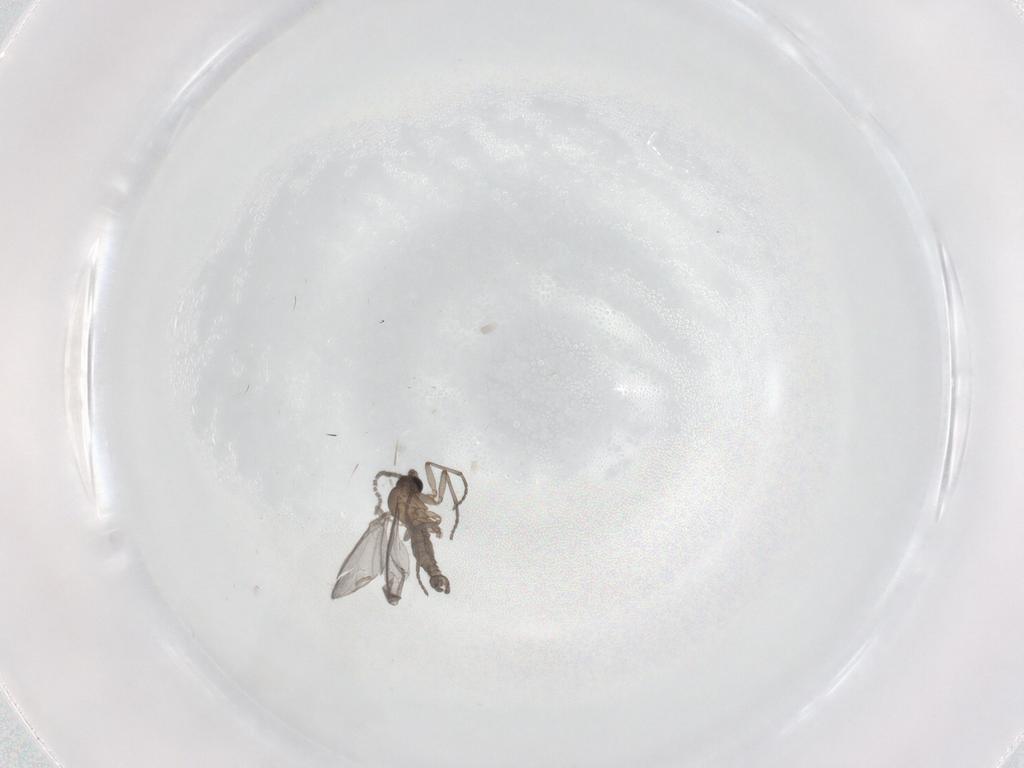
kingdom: Animalia
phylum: Arthropoda
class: Insecta
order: Diptera
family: Sciaridae
